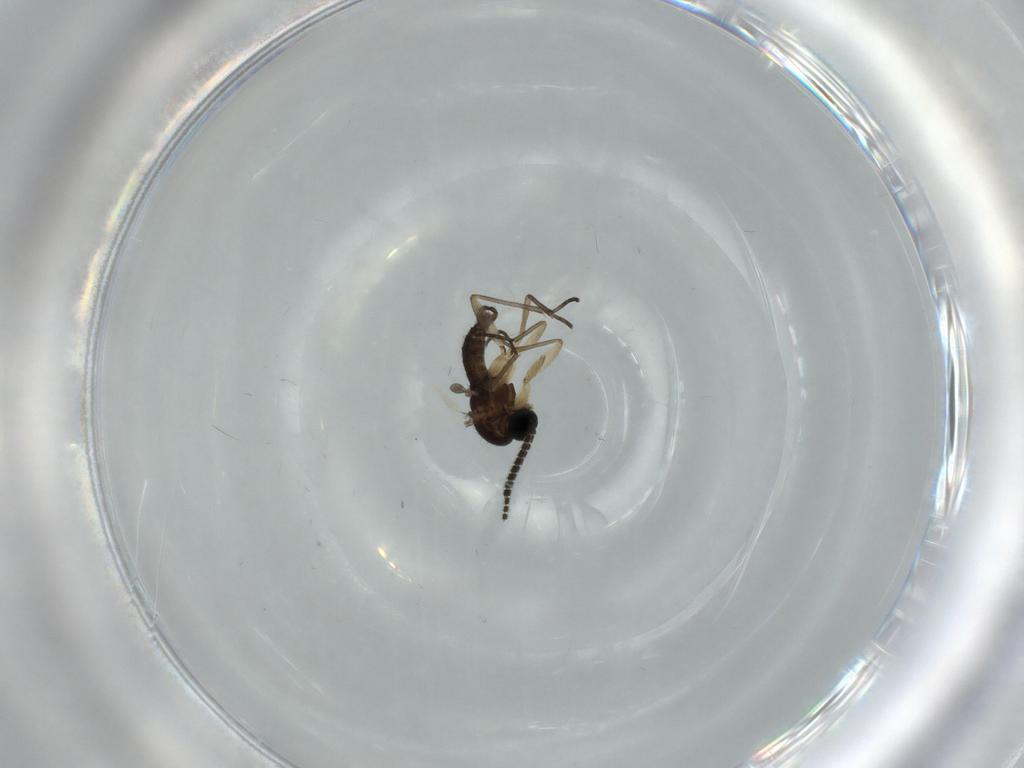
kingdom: Animalia
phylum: Arthropoda
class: Insecta
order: Diptera
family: Sciaridae
